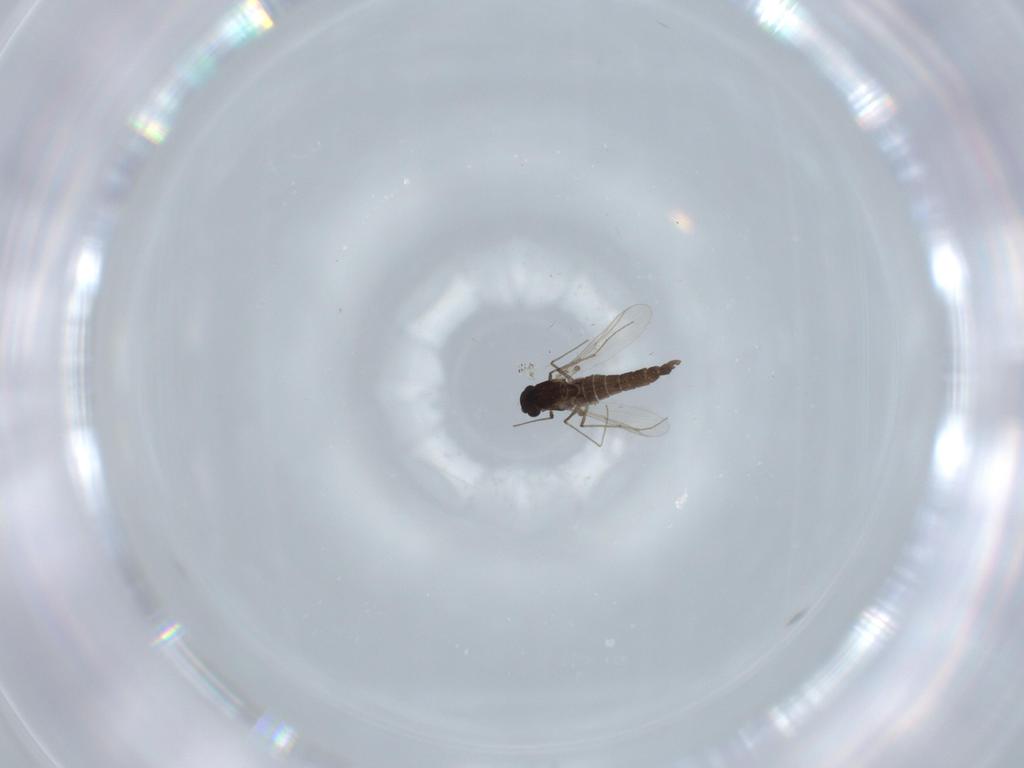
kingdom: Animalia
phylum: Arthropoda
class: Insecta
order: Diptera
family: Chironomidae
